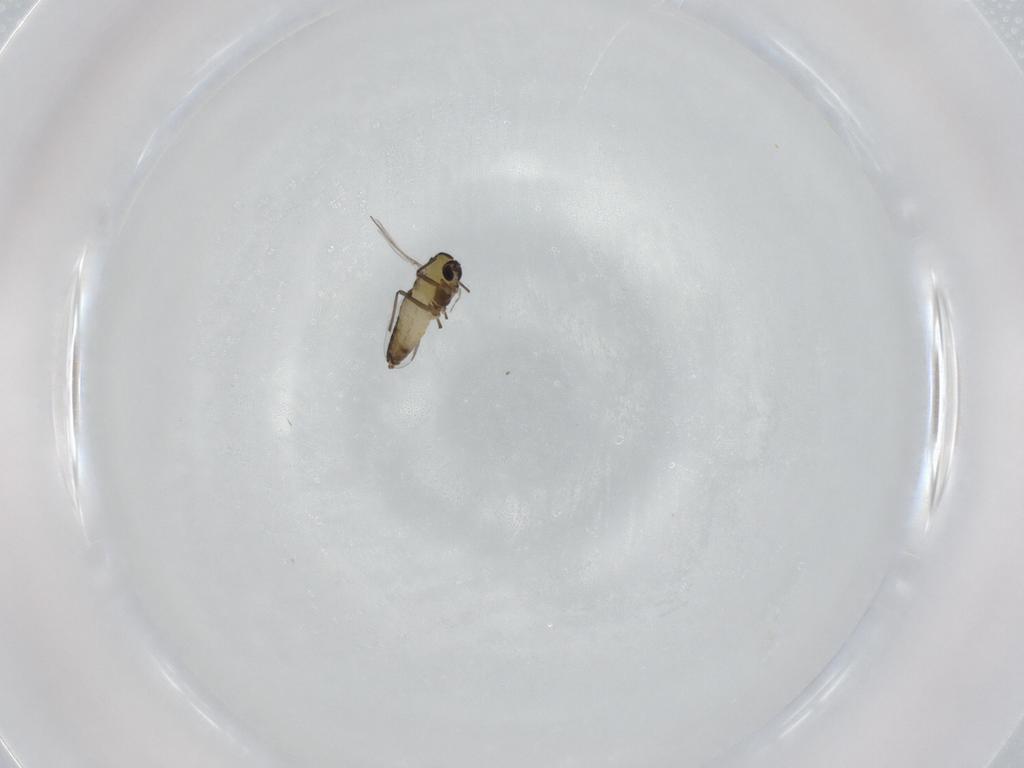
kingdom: Animalia
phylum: Arthropoda
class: Insecta
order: Diptera
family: Chironomidae
